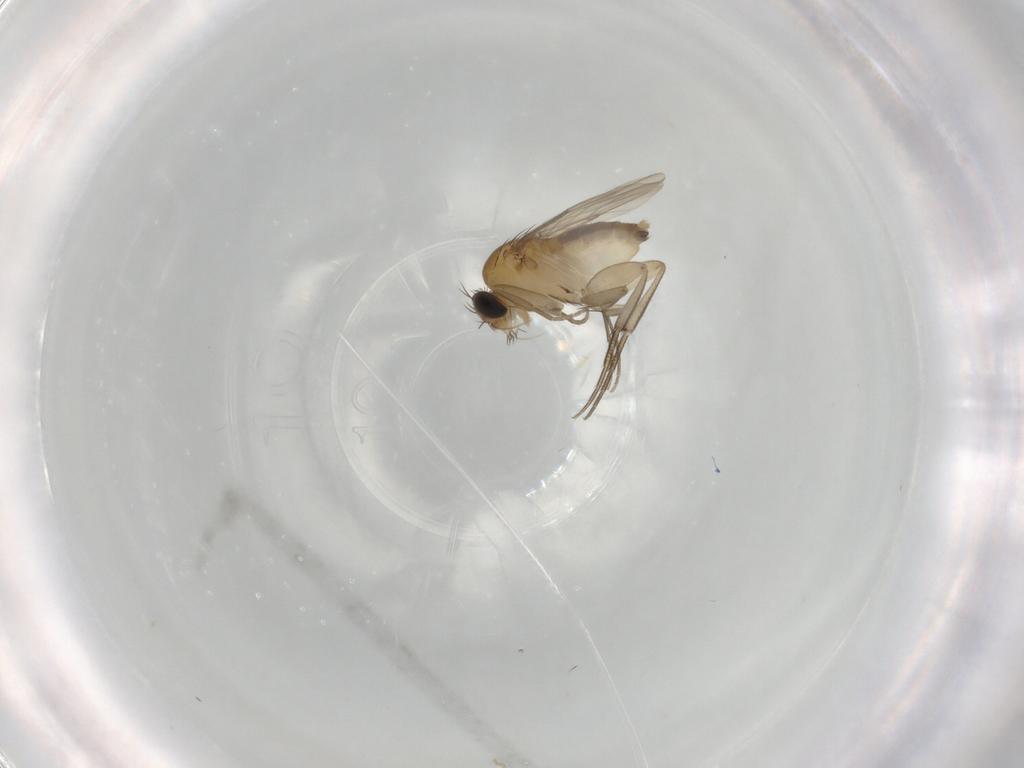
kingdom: Animalia
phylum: Arthropoda
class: Insecta
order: Diptera
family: Phoridae
